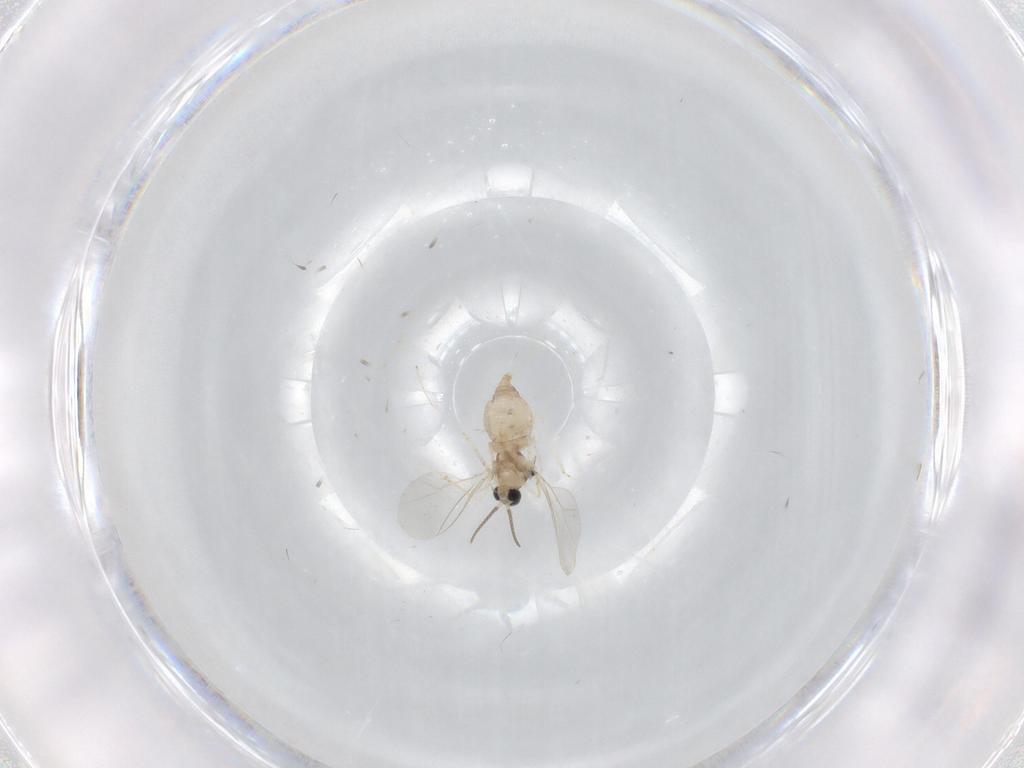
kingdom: Animalia
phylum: Arthropoda
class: Insecta
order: Diptera
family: Cecidomyiidae
